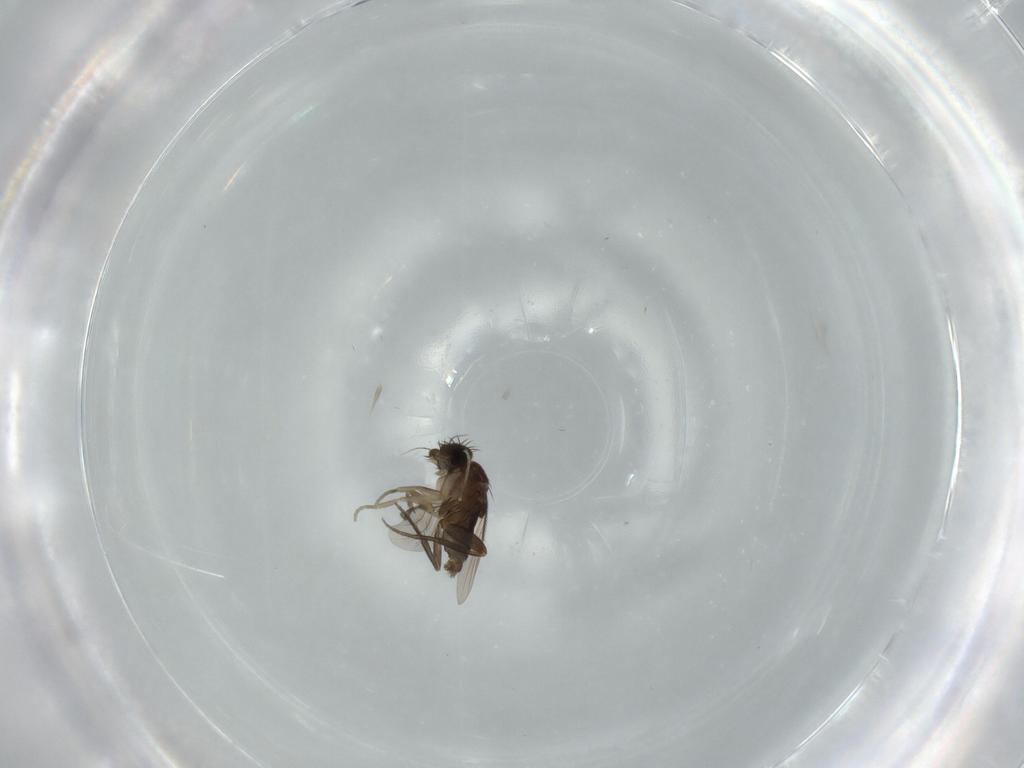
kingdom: Animalia
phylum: Arthropoda
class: Insecta
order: Diptera
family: Phoridae
